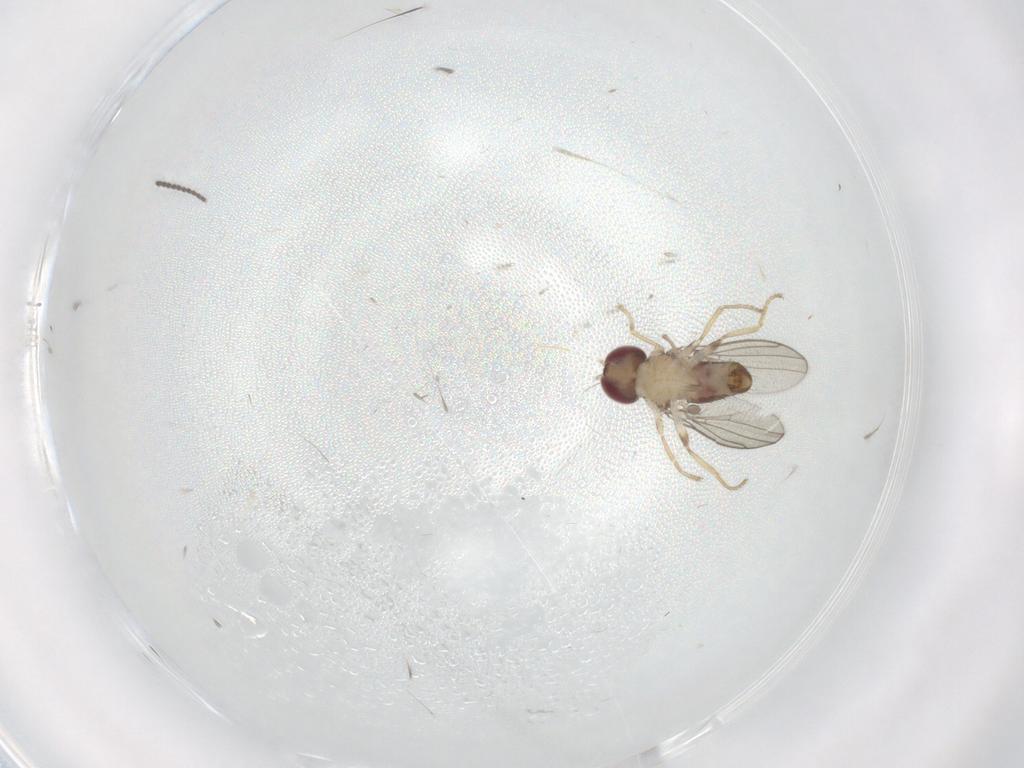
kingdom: Animalia
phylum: Arthropoda
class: Insecta
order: Diptera
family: Anthomyzidae
